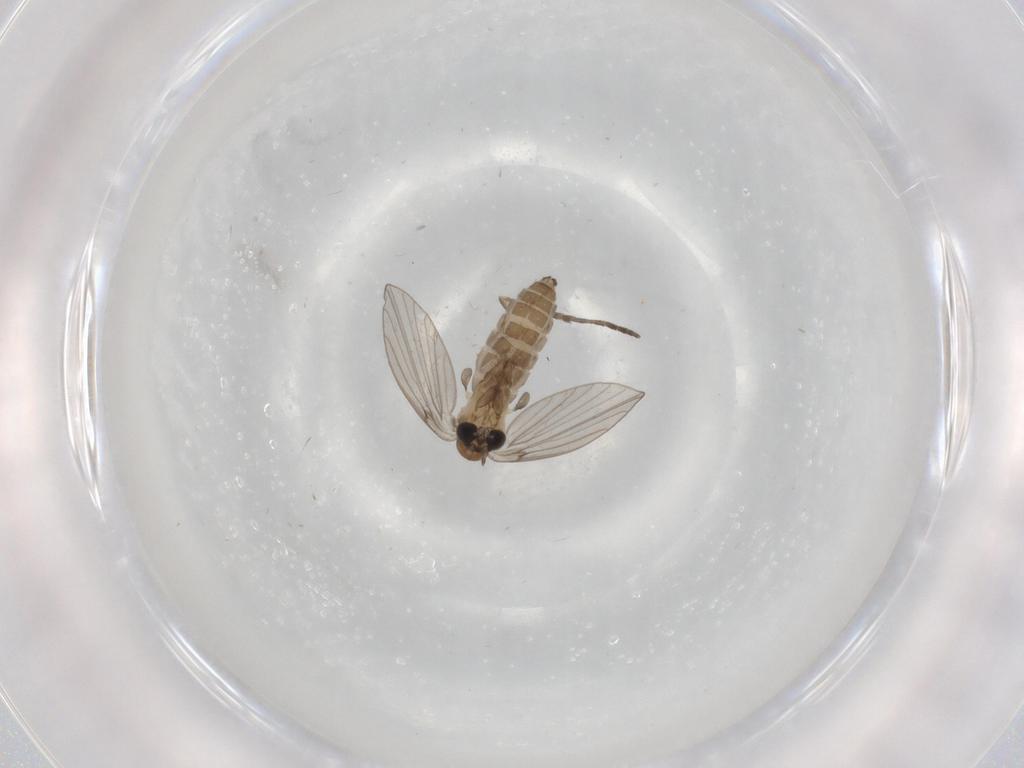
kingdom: Animalia
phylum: Arthropoda
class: Insecta
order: Diptera
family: Psychodidae
